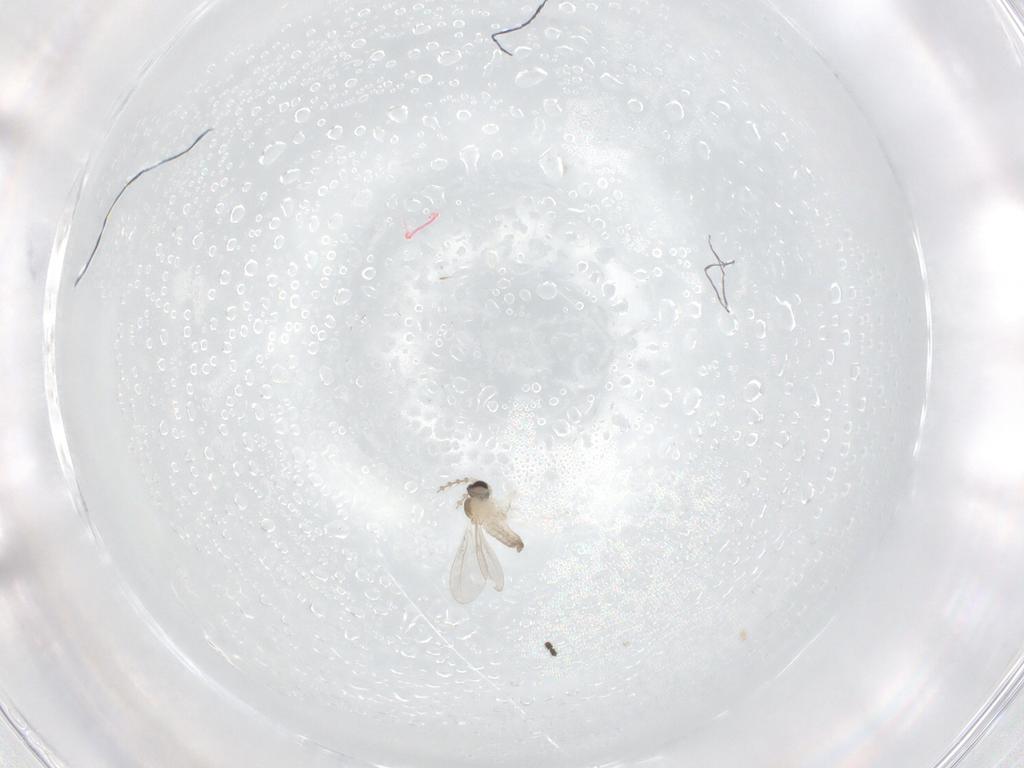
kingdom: Animalia
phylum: Arthropoda
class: Insecta
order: Diptera
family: Cecidomyiidae
